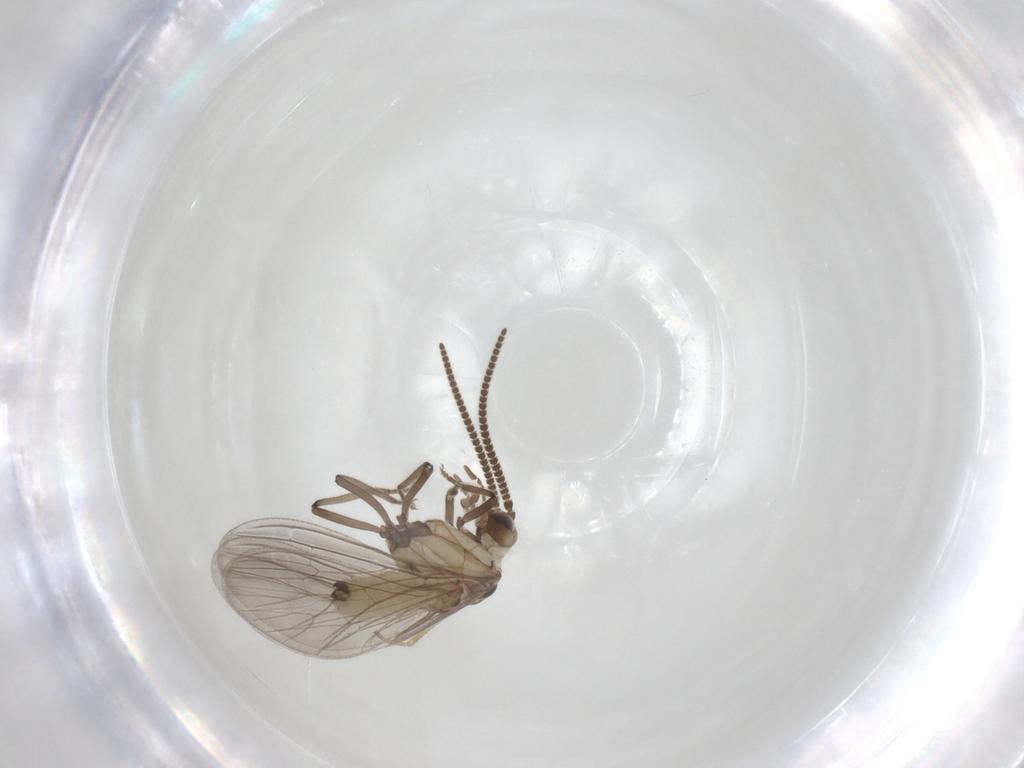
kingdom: Animalia
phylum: Arthropoda
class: Insecta
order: Neuroptera
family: Coniopterygidae
